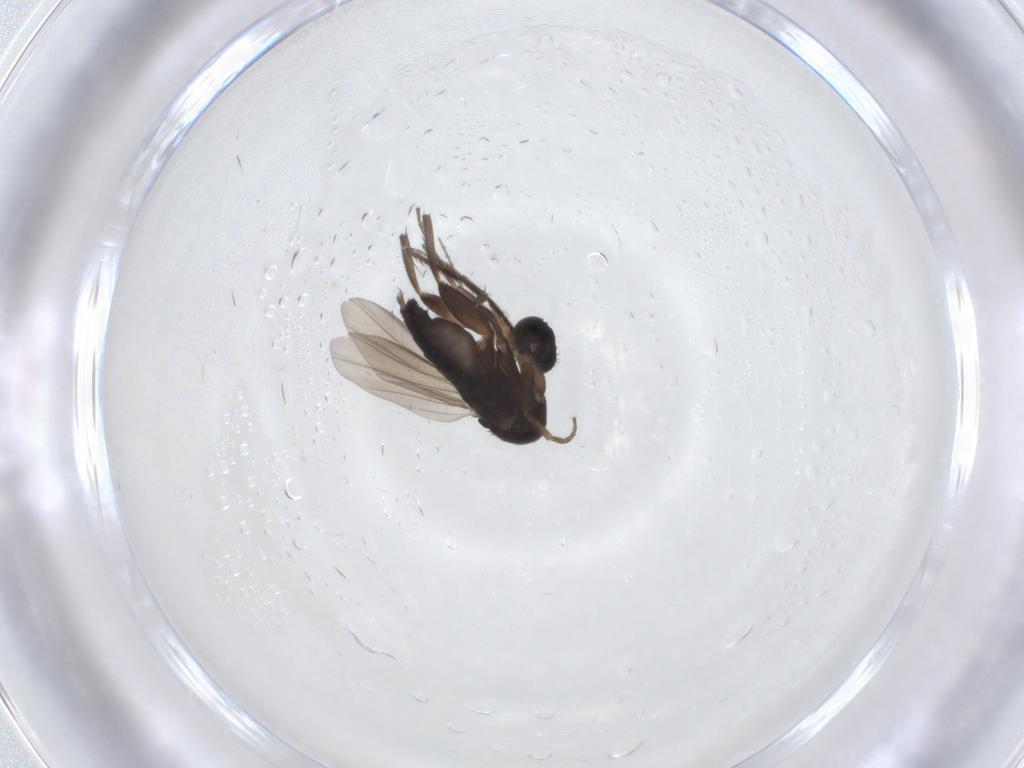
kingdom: Animalia
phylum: Arthropoda
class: Insecta
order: Diptera
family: Phoridae
